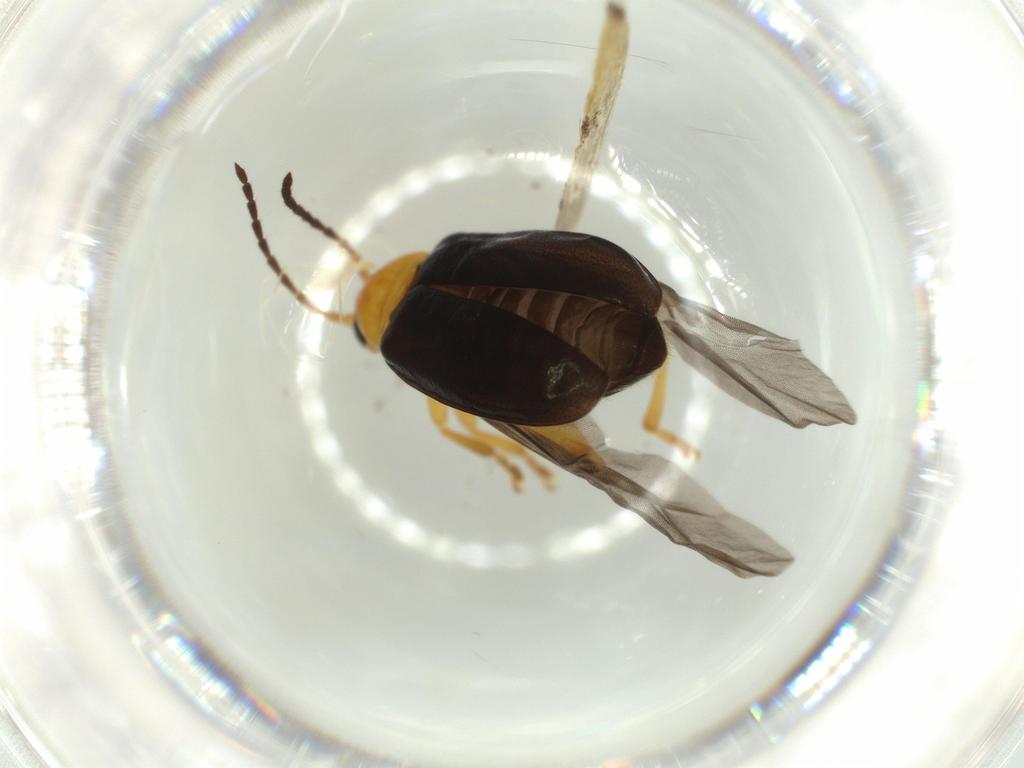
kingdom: Animalia
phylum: Arthropoda
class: Insecta
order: Coleoptera
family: Chrysomelidae
